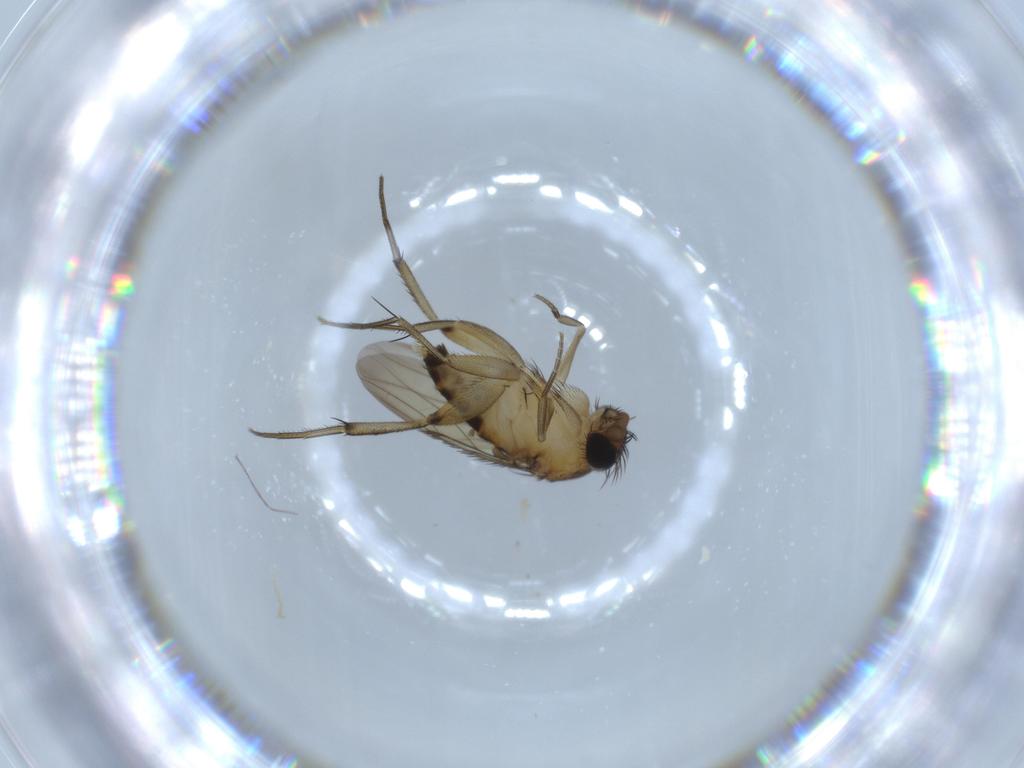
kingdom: Animalia
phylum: Arthropoda
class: Insecta
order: Diptera
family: Phoridae
